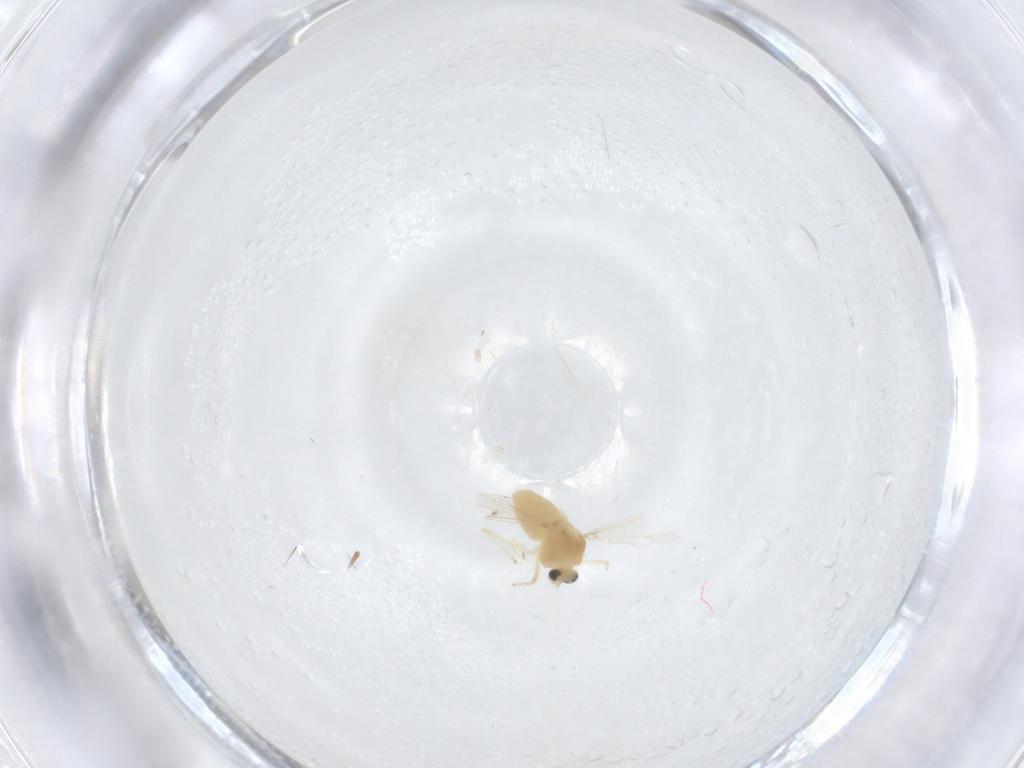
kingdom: Animalia
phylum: Arthropoda
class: Insecta
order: Diptera
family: Chironomidae
